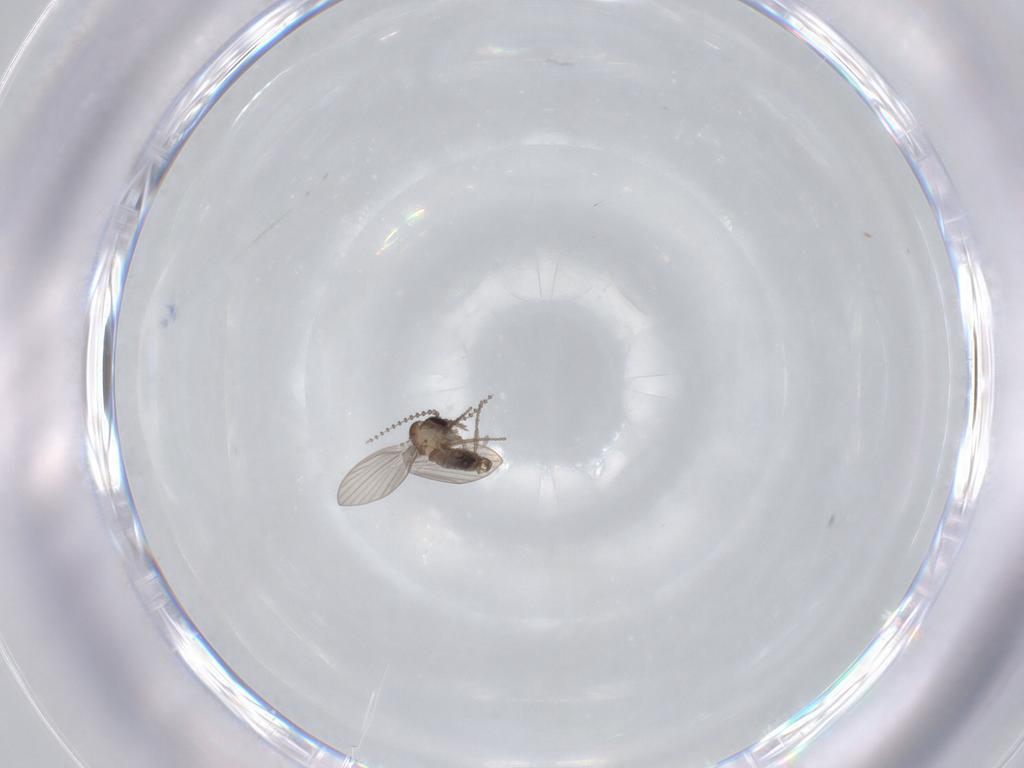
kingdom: Animalia
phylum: Arthropoda
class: Insecta
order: Diptera
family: Psychodidae
